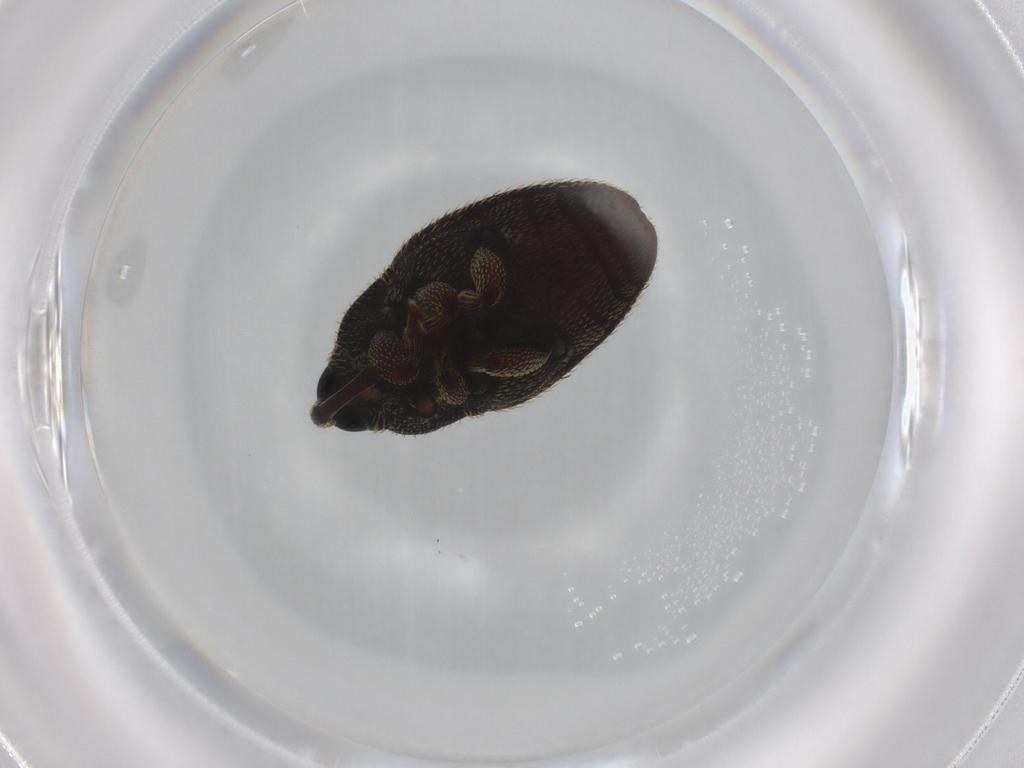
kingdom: Animalia
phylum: Arthropoda
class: Insecta
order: Coleoptera
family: Curculionidae
